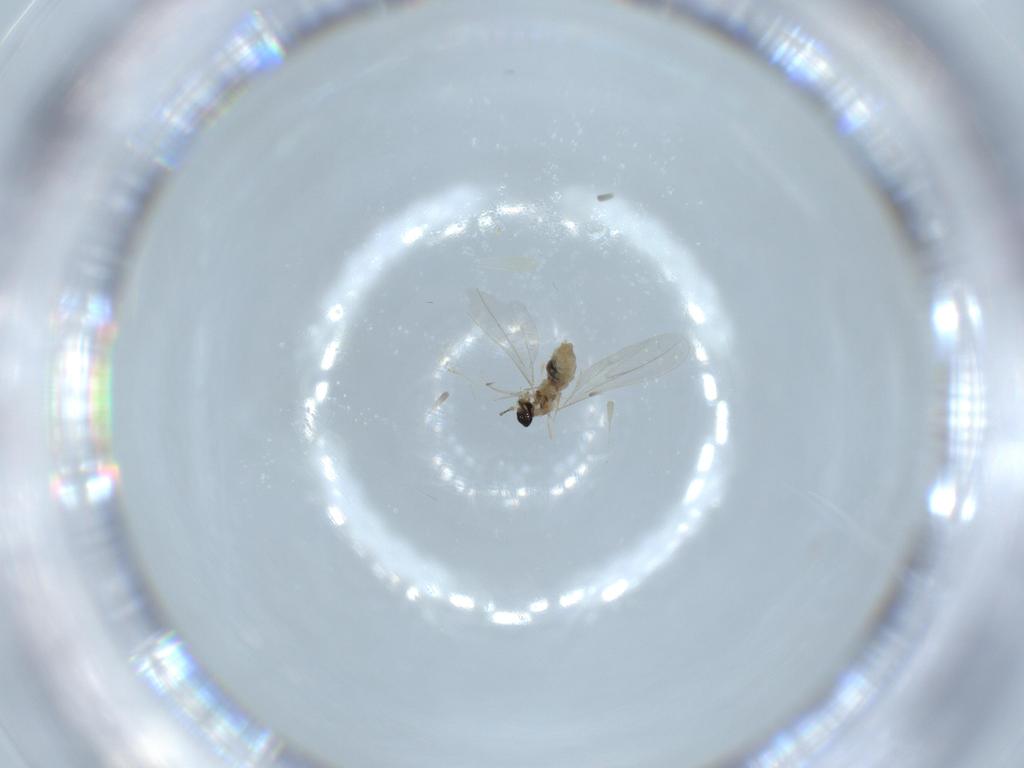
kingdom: Animalia
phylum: Arthropoda
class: Insecta
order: Diptera
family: Cecidomyiidae
